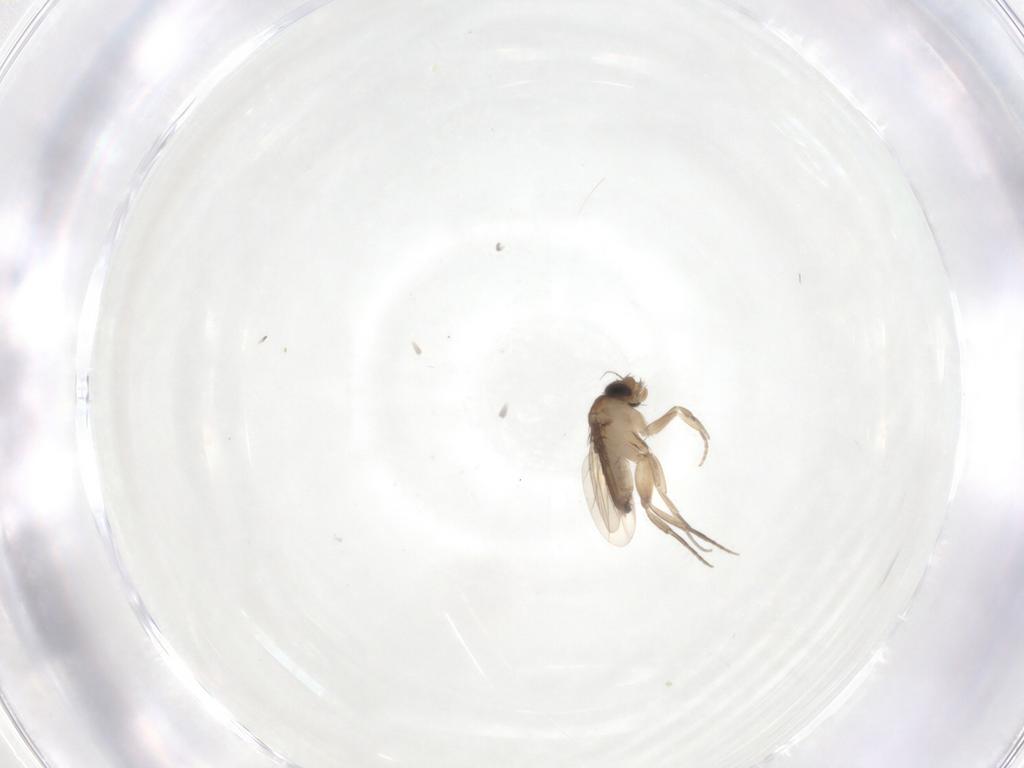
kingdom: Animalia
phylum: Arthropoda
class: Insecta
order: Diptera
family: Phoridae
